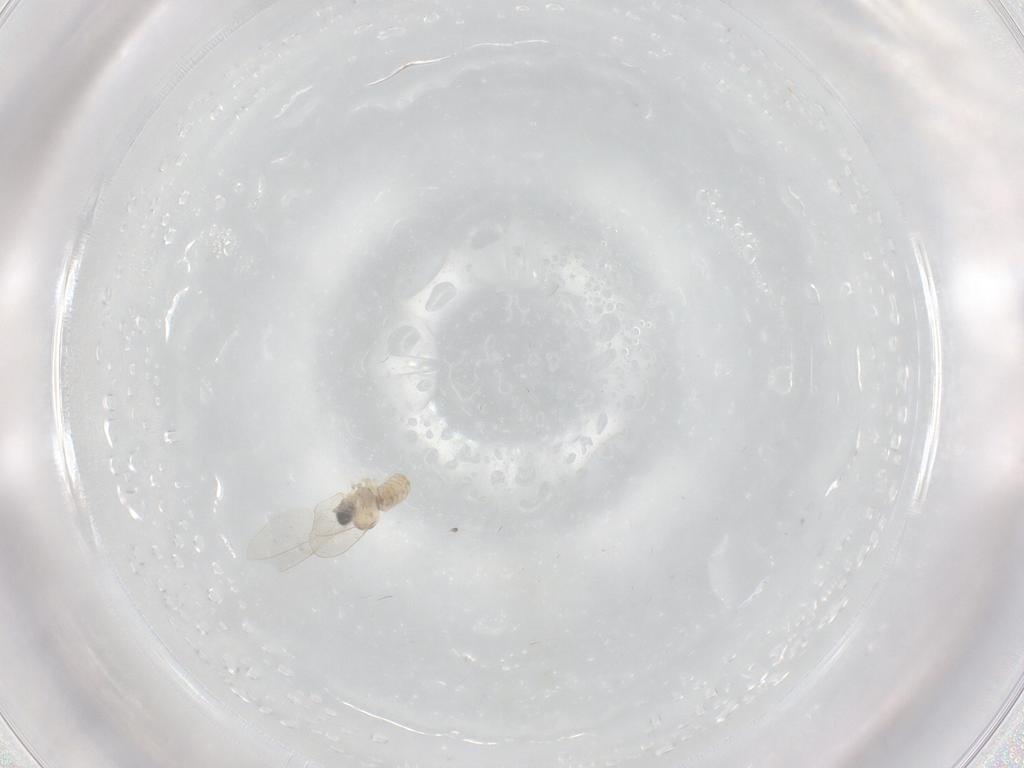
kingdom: Animalia
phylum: Arthropoda
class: Insecta
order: Diptera
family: Cecidomyiidae
